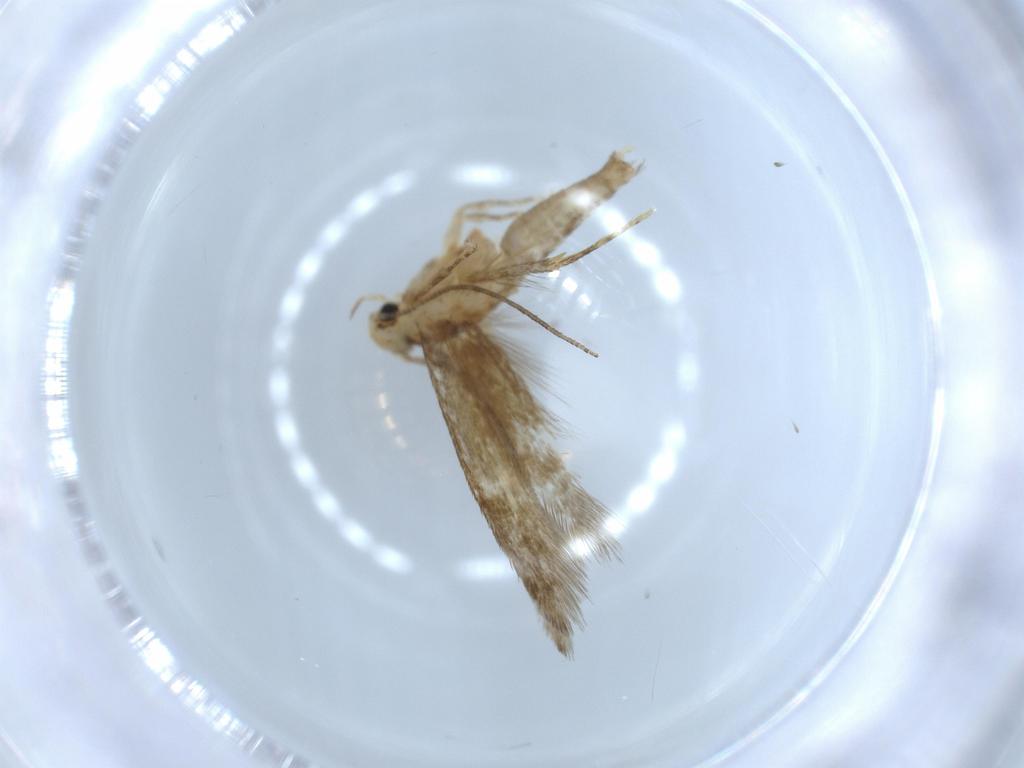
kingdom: Animalia
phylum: Arthropoda
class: Insecta
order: Lepidoptera
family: Tineidae
